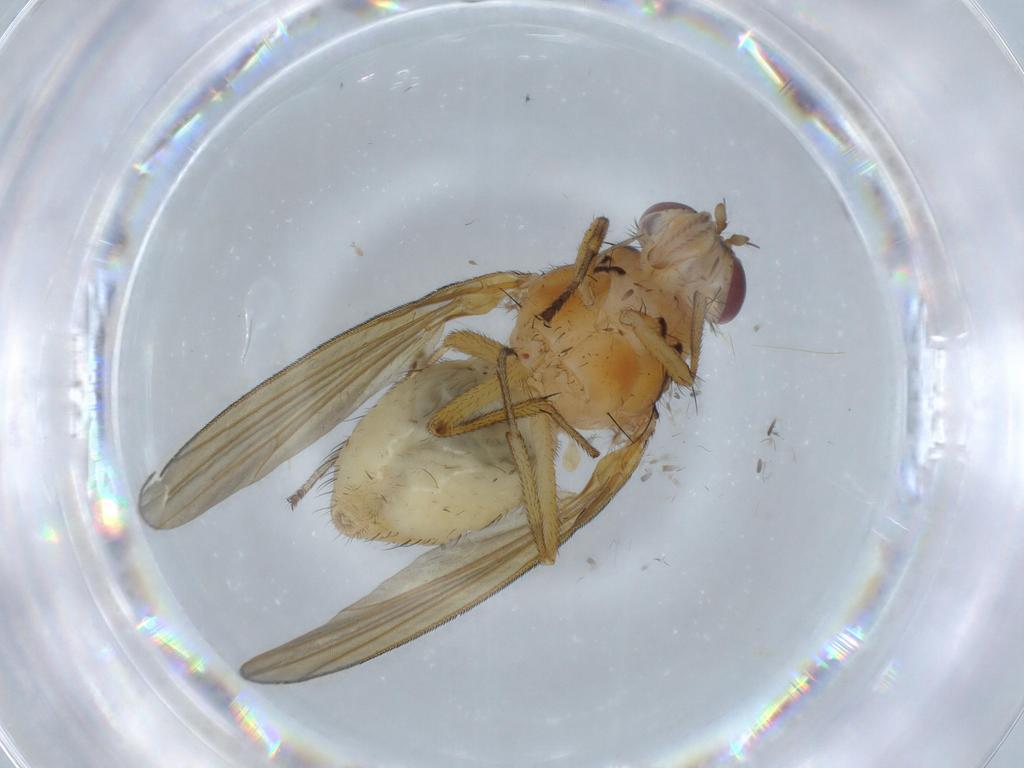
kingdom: Animalia
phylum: Arthropoda
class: Insecta
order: Diptera
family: Lauxaniidae
